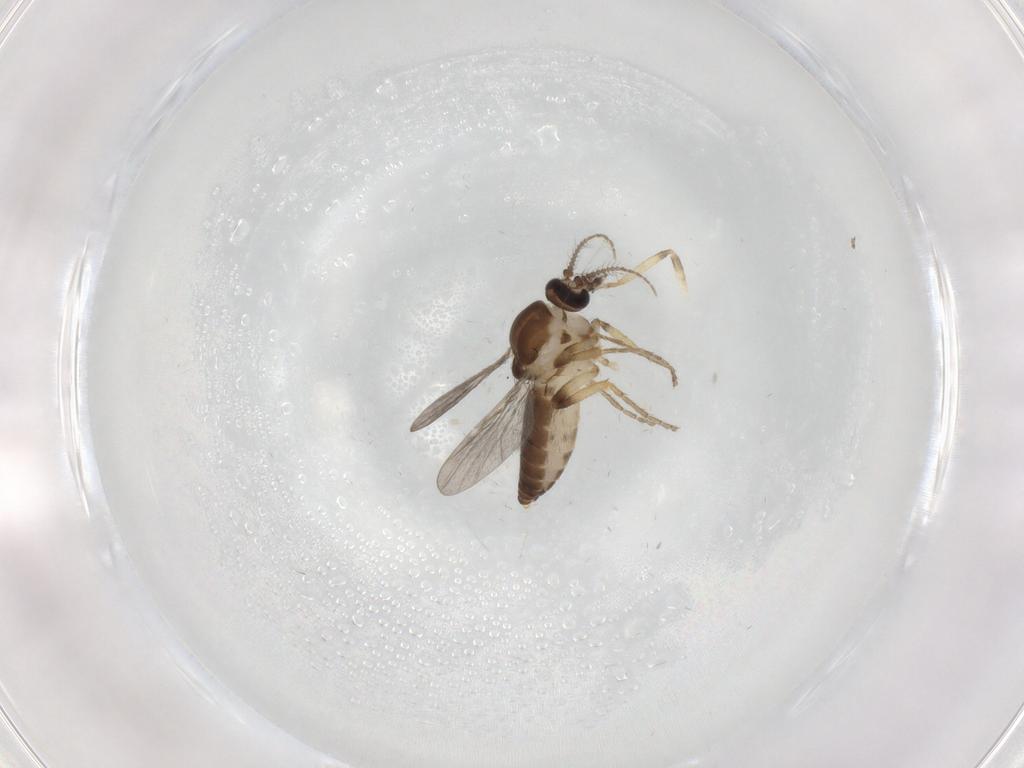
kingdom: Animalia
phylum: Arthropoda
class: Insecta
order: Diptera
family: Ceratopogonidae
